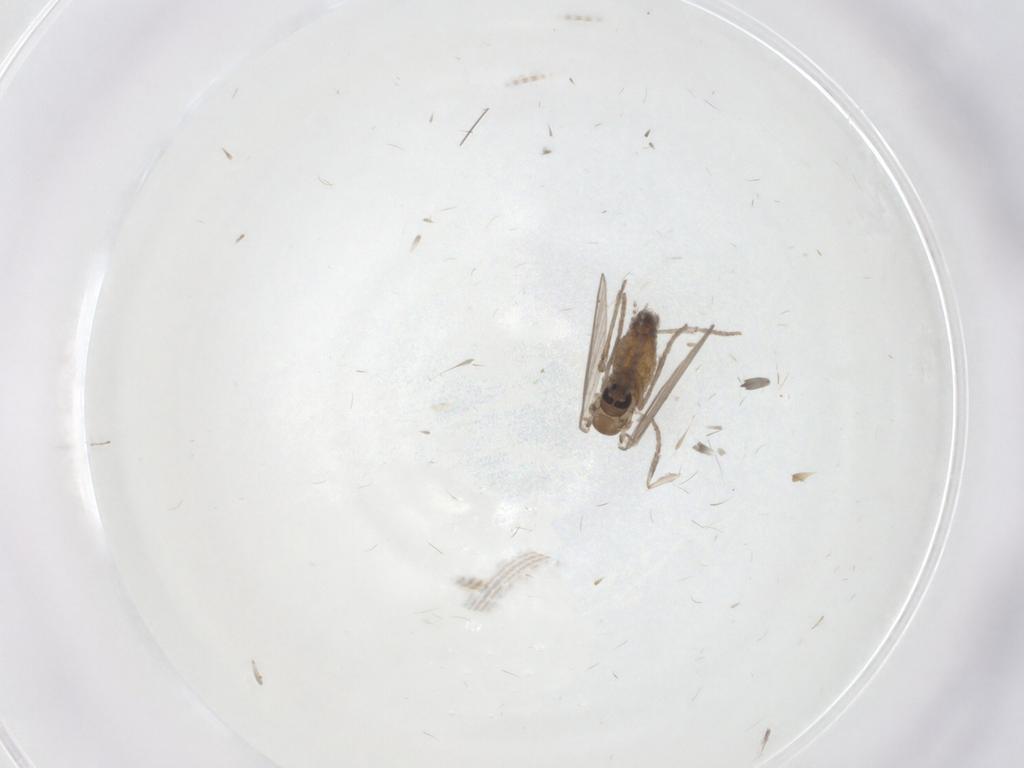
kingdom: Animalia
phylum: Arthropoda
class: Insecta
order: Diptera
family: Psychodidae
